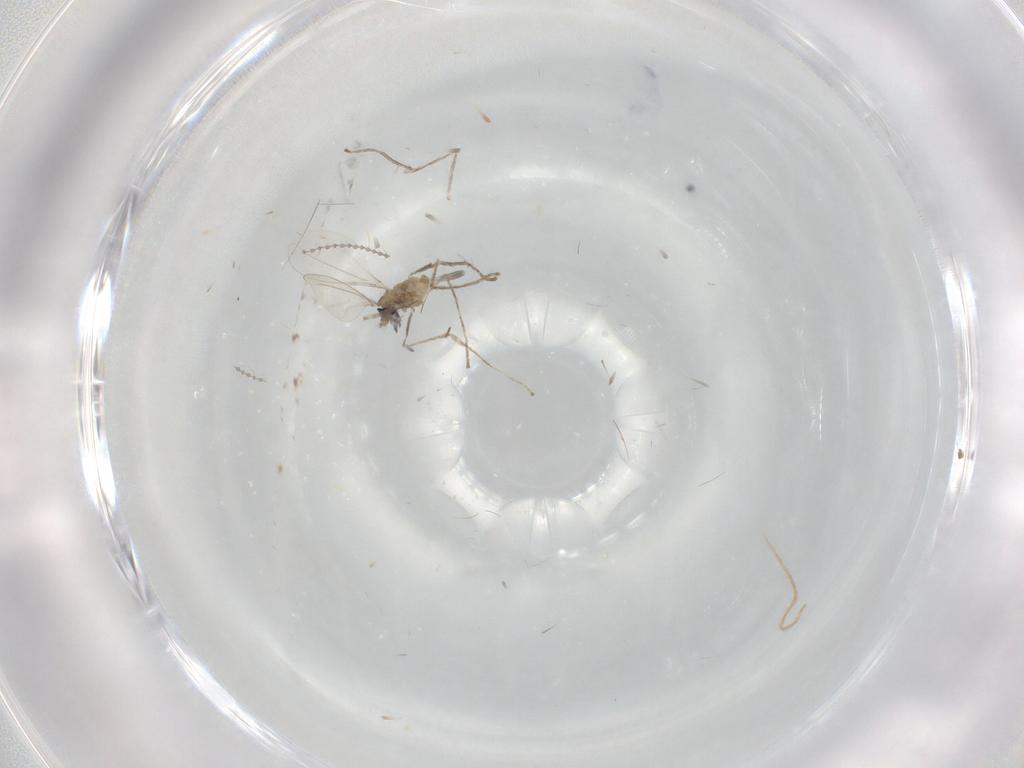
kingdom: Animalia
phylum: Arthropoda
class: Insecta
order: Diptera
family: Cecidomyiidae
